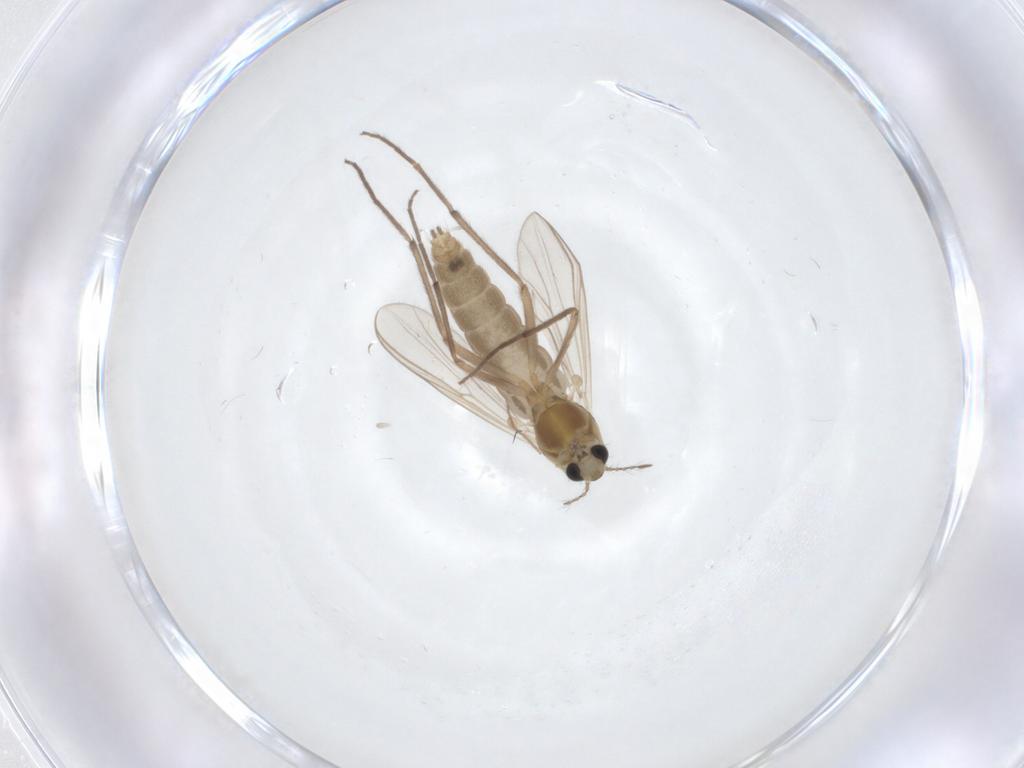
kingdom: Animalia
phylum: Arthropoda
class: Insecta
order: Diptera
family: Chironomidae
